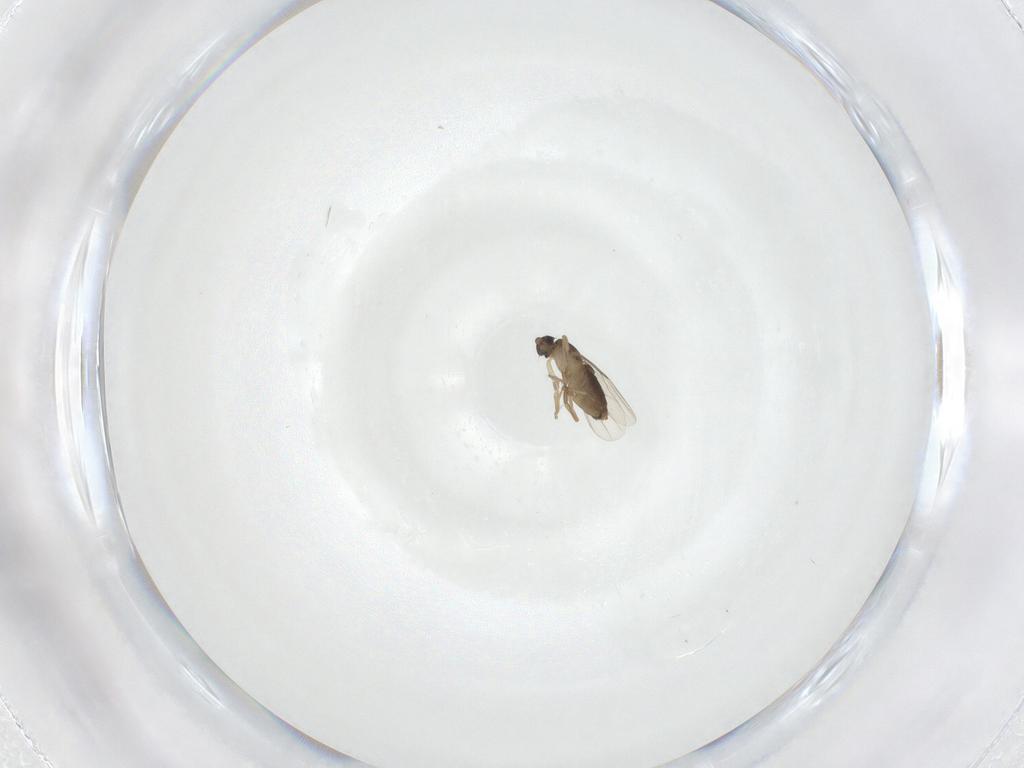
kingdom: Animalia
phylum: Arthropoda
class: Insecta
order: Diptera
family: Cecidomyiidae
